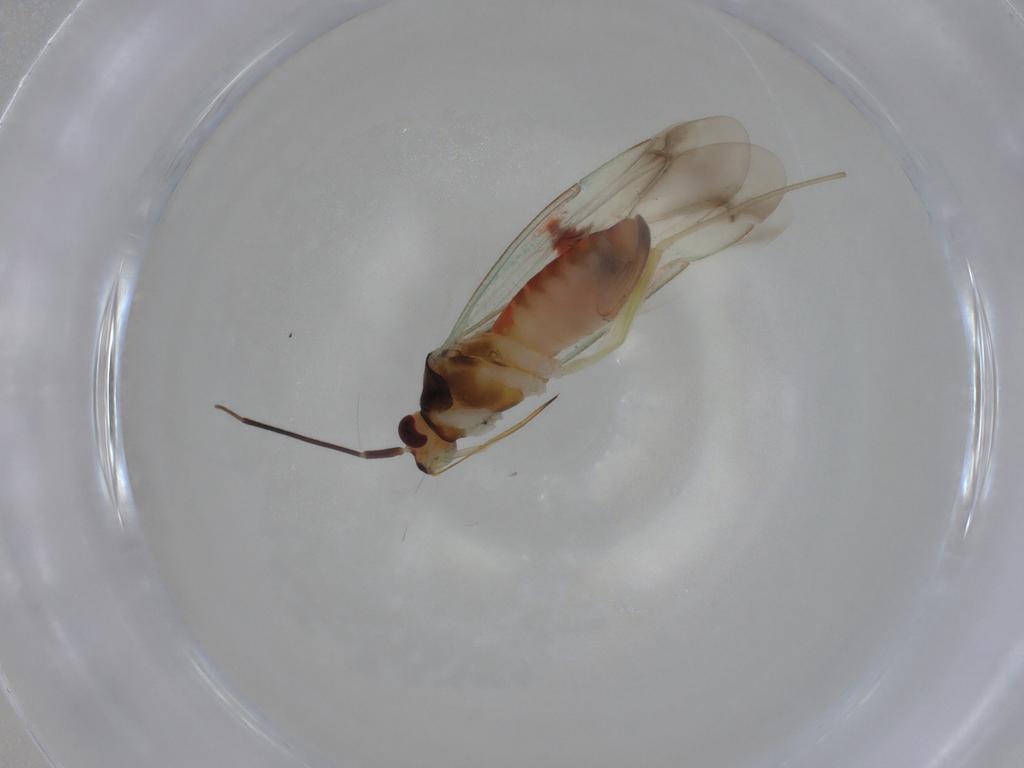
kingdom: Animalia
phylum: Arthropoda
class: Insecta
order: Hemiptera
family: Miridae
